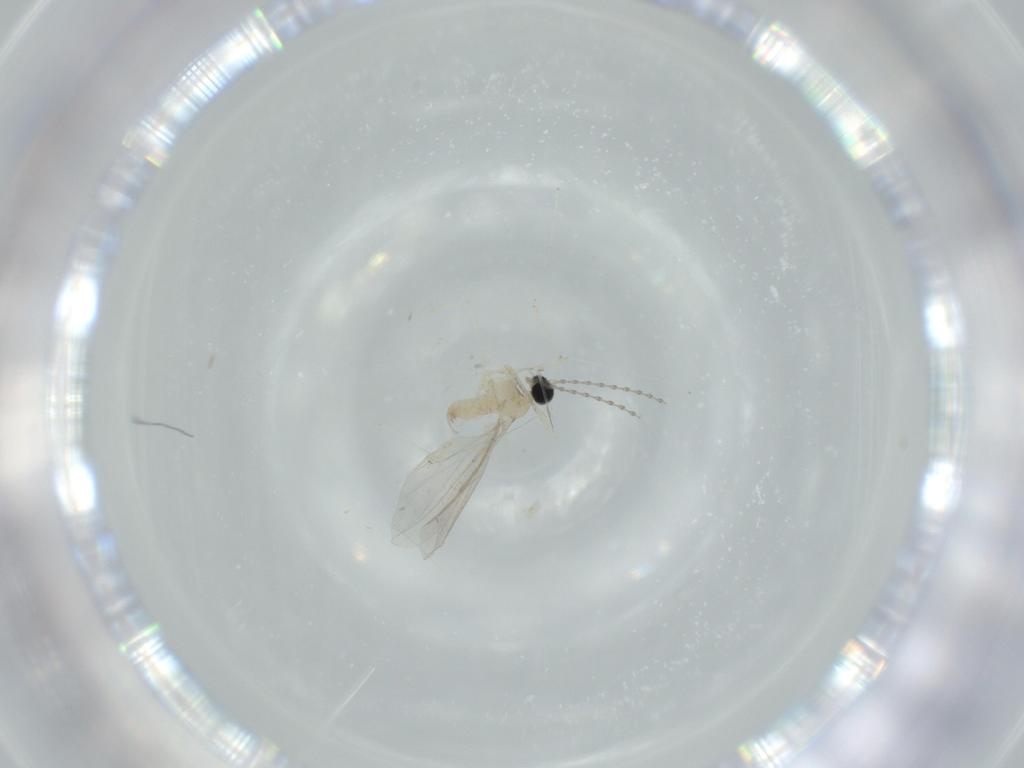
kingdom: Animalia
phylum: Arthropoda
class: Insecta
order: Diptera
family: Cecidomyiidae
